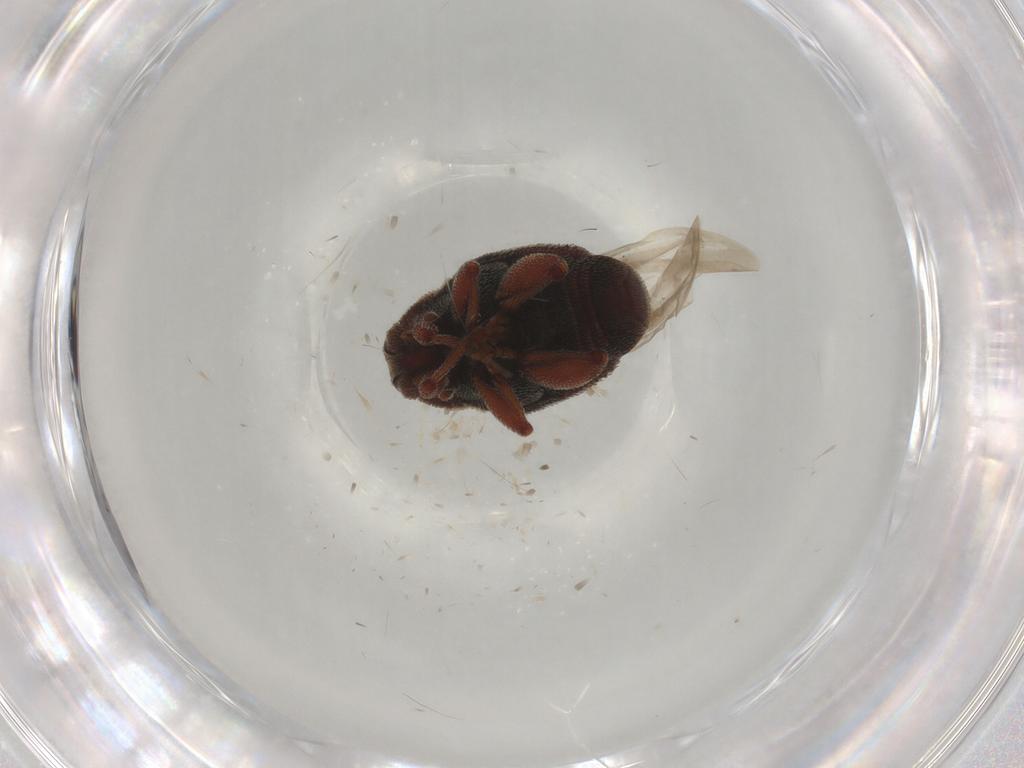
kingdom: Animalia
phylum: Arthropoda
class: Insecta
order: Coleoptera
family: Curculionidae
